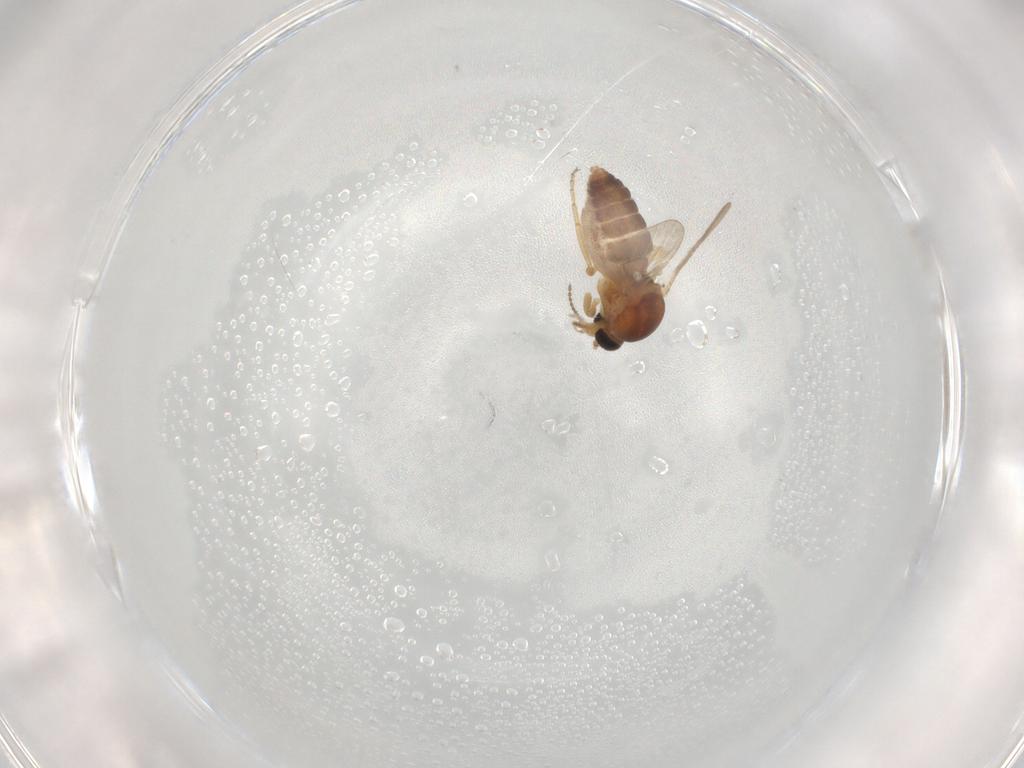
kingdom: Animalia
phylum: Arthropoda
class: Insecta
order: Diptera
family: Ceratopogonidae
